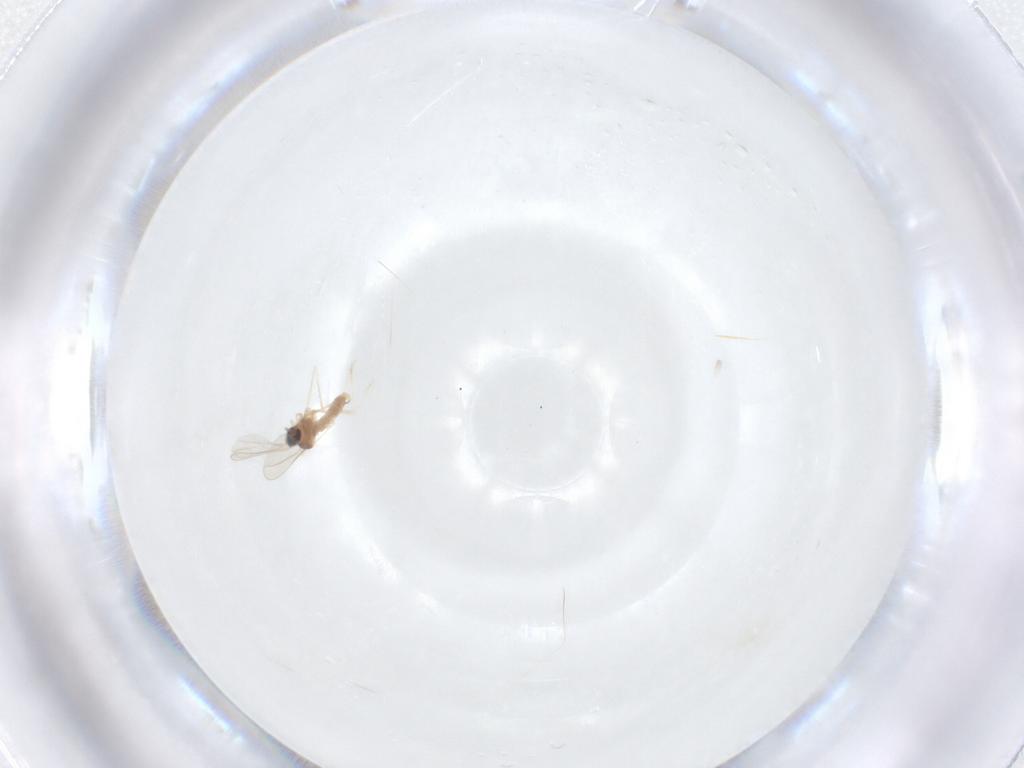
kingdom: Animalia
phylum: Arthropoda
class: Insecta
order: Diptera
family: Cecidomyiidae
